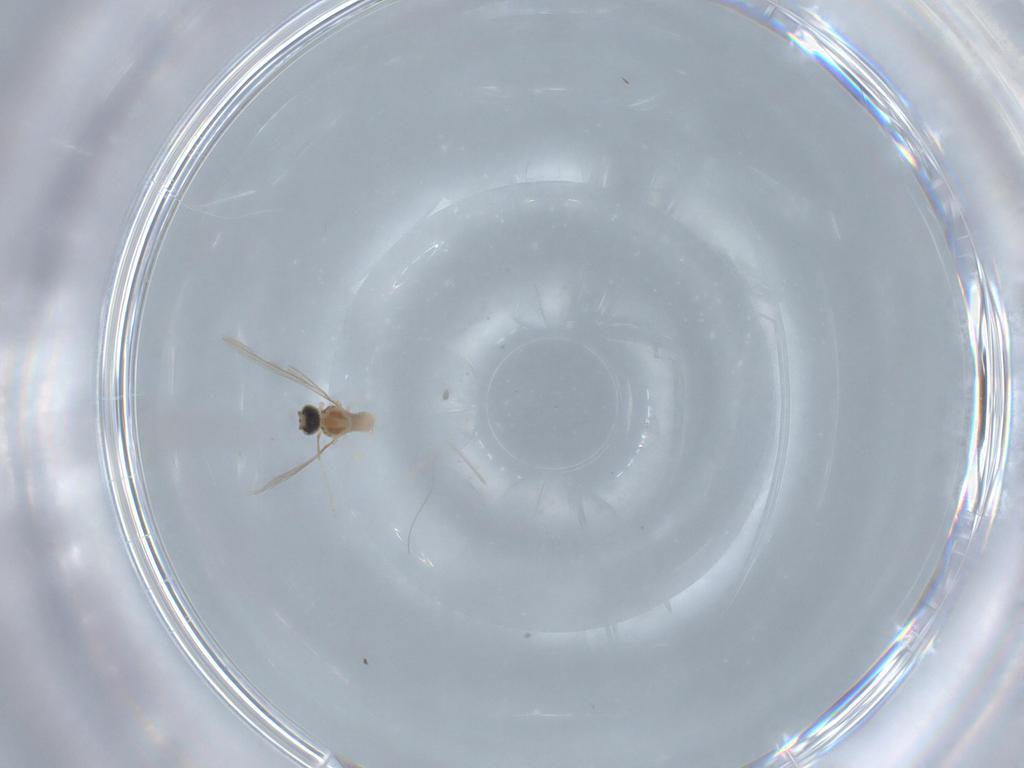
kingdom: Animalia
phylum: Arthropoda
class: Insecta
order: Diptera
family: Cecidomyiidae
